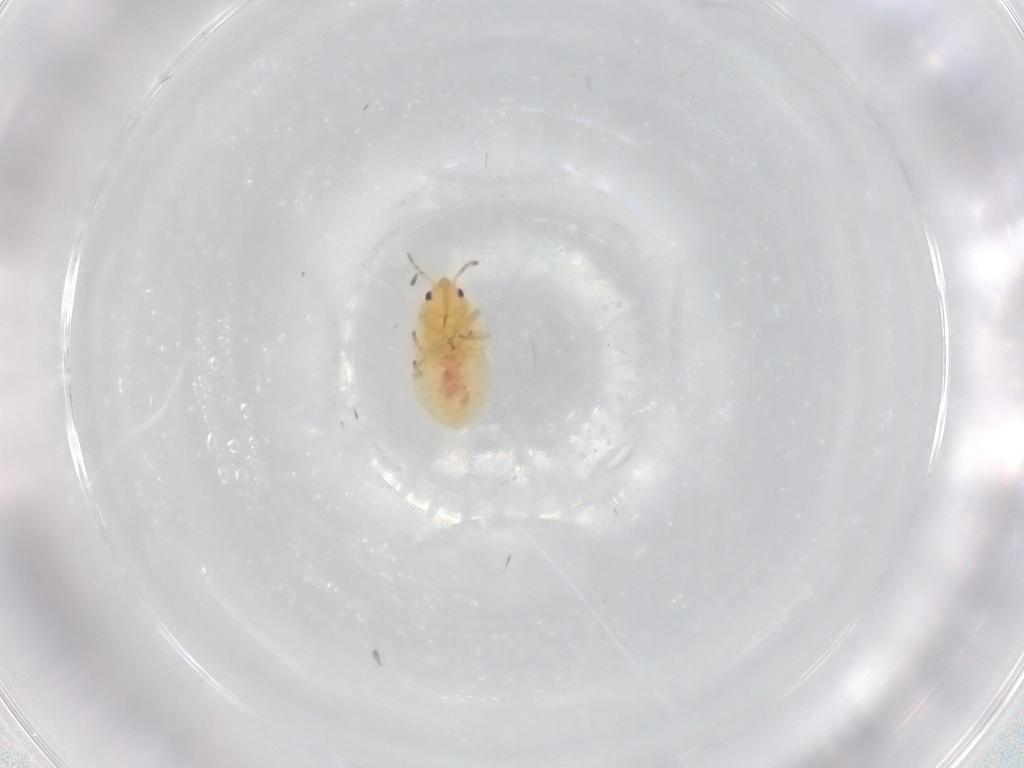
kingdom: Animalia
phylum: Arthropoda
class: Insecta
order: Hemiptera
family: Anthocoridae
